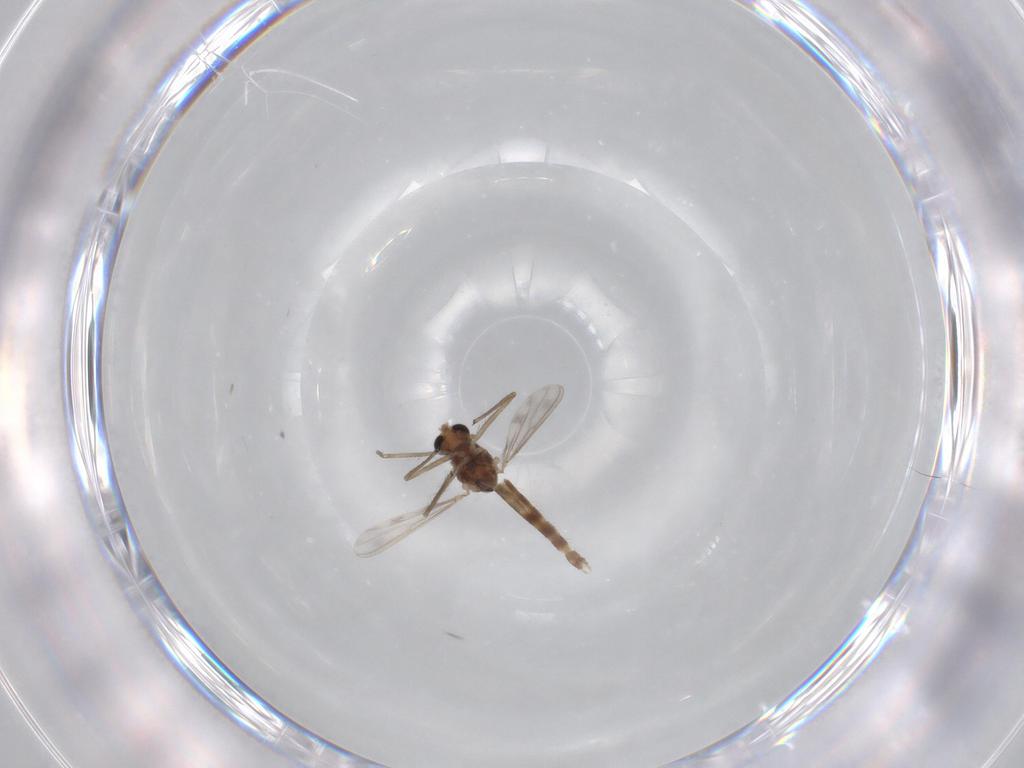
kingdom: Animalia
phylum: Arthropoda
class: Insecta
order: Diptera
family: Chironomidae
